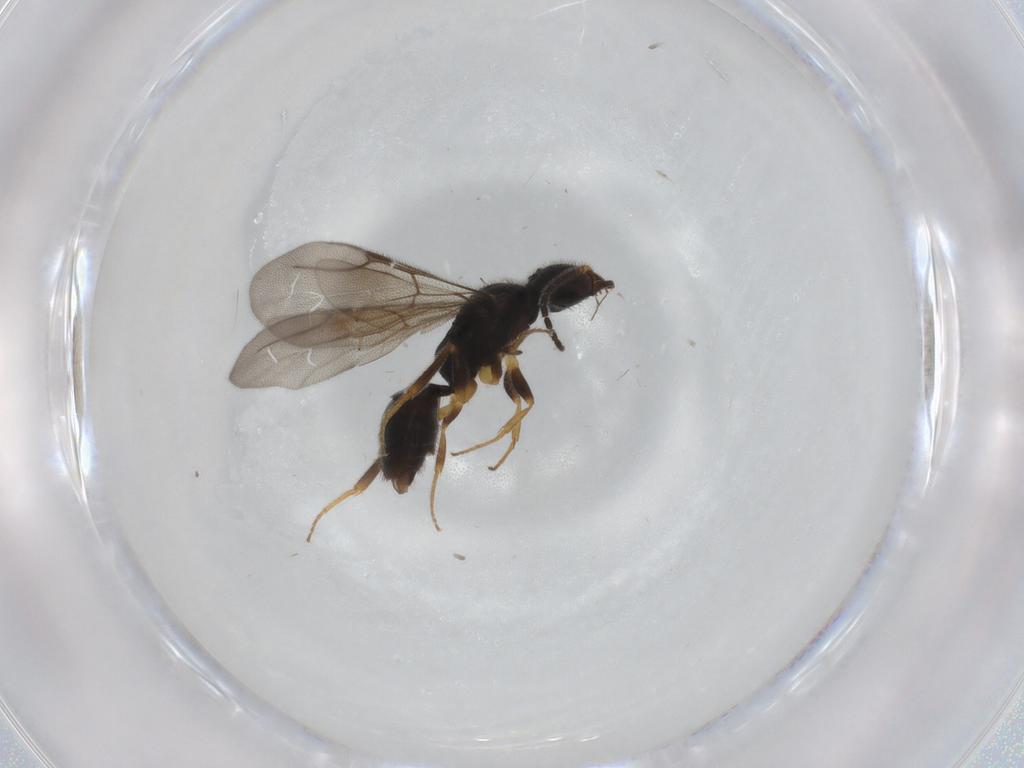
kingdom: Animalia
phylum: Arthropoda
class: Insecta
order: Hymenoptera
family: Bethylidae
